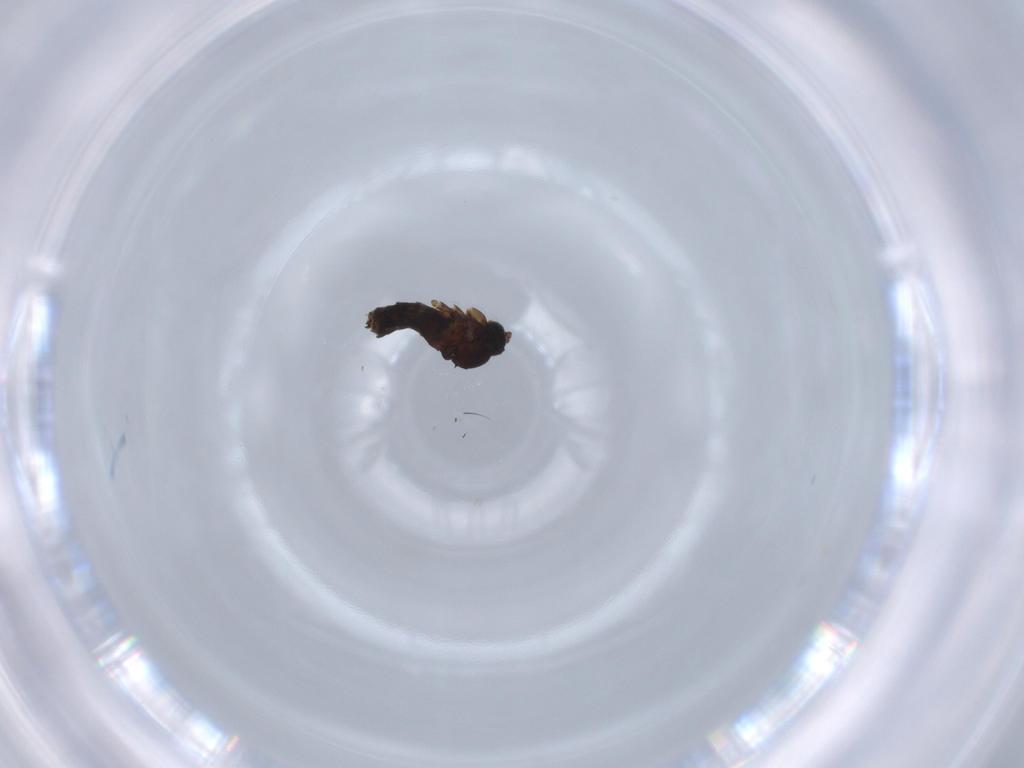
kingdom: Animalia
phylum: Arthropoda
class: Insecta
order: Diptera
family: Hybotidae
